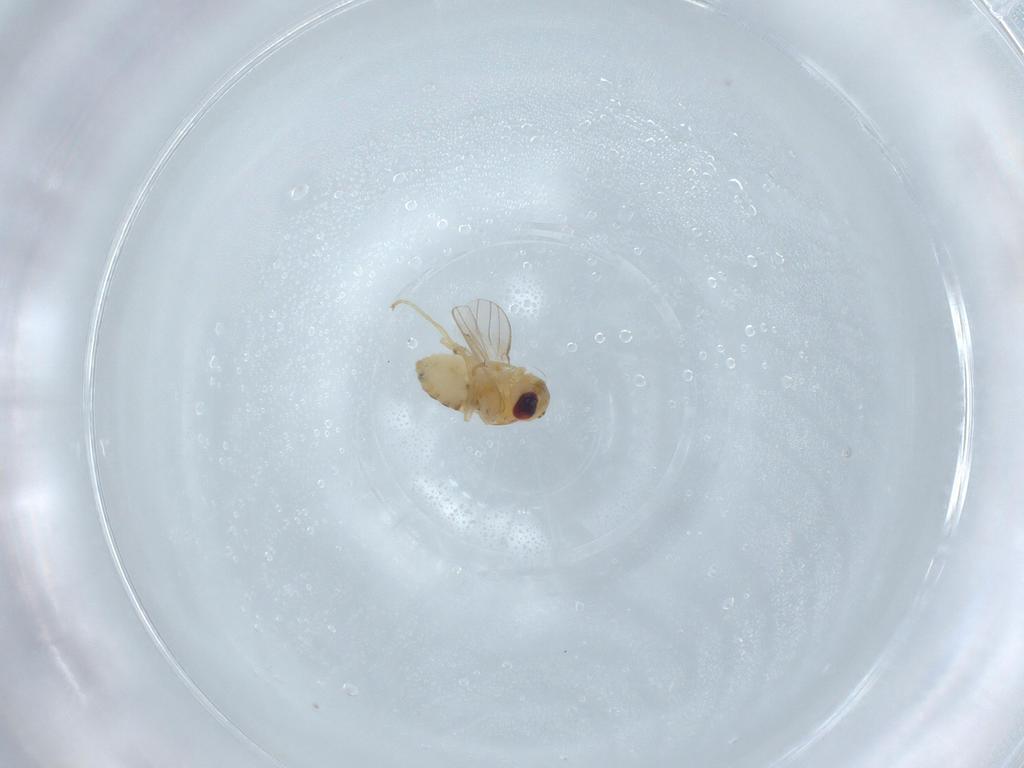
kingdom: Animalia
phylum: Arthropoda
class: Insecta
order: Diptera
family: Chyromyidae
